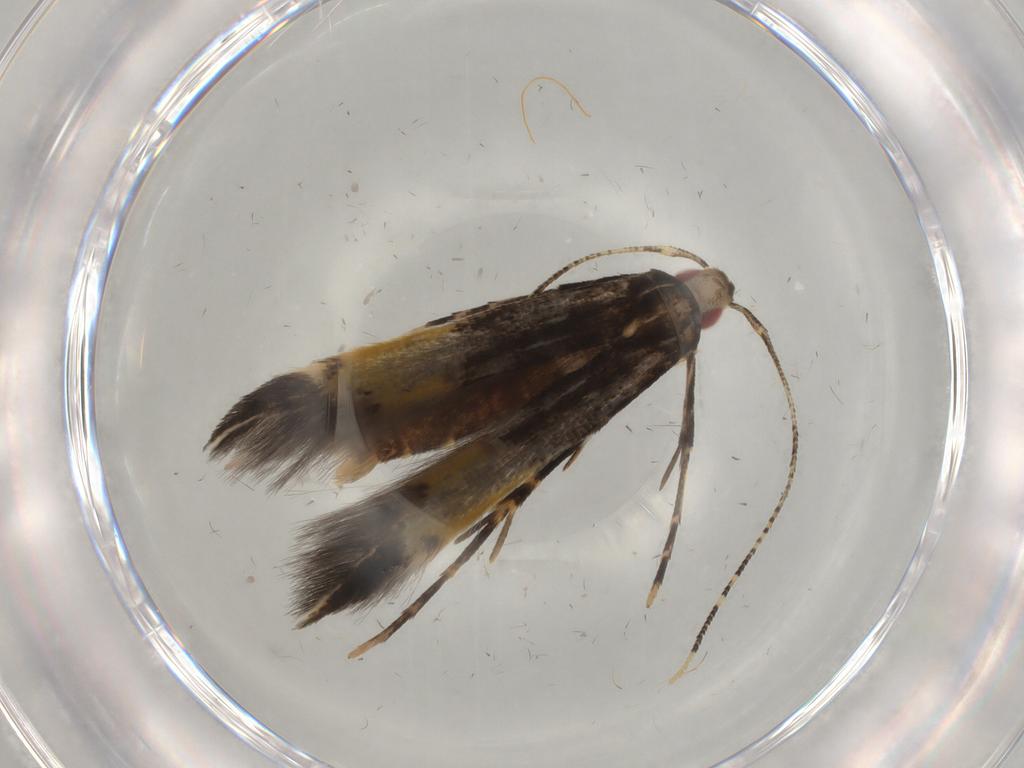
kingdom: Animalia
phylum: Arthropoda
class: Insecta
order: Lepidoptera
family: Cosmopterigidae
